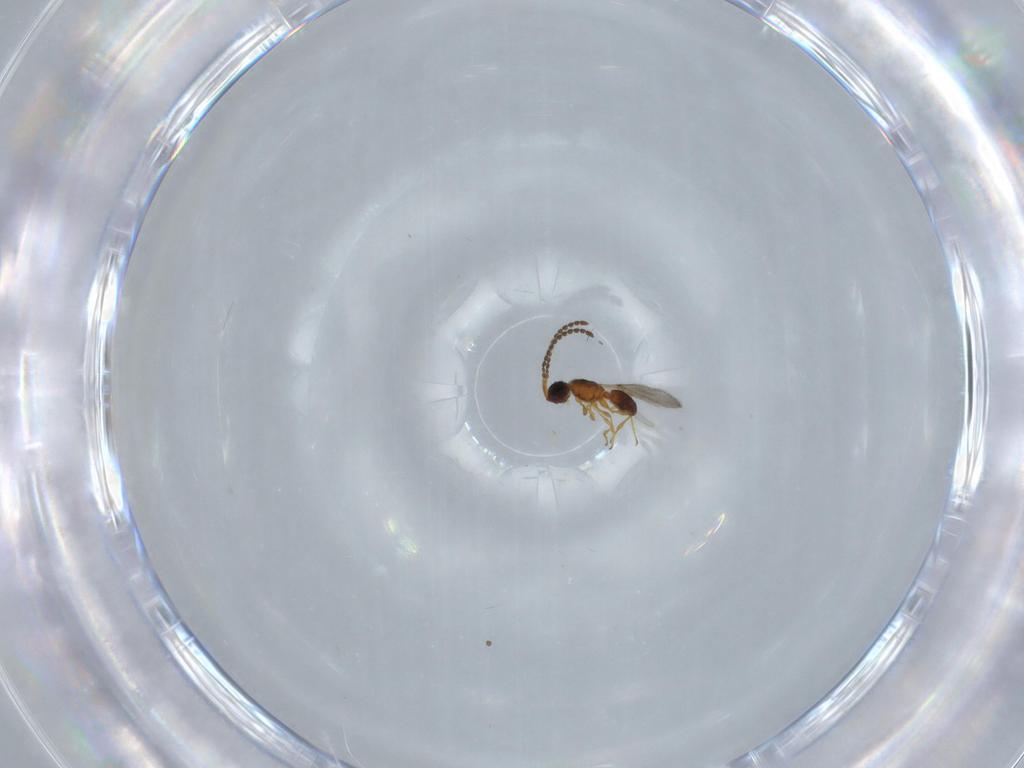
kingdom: Animalia
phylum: Arthropoda
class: Insecta
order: Hymenoptera
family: Diapriidae
